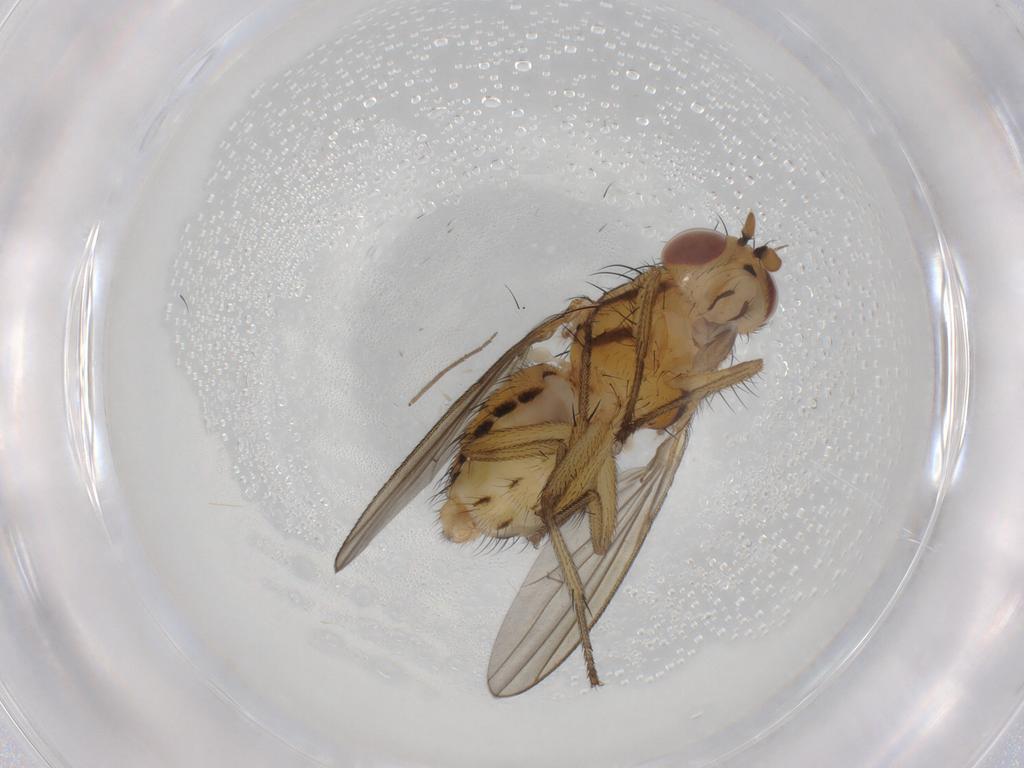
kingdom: Animalia
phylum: Arthropoda
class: Insecta
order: Diptera
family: Chironomidae
